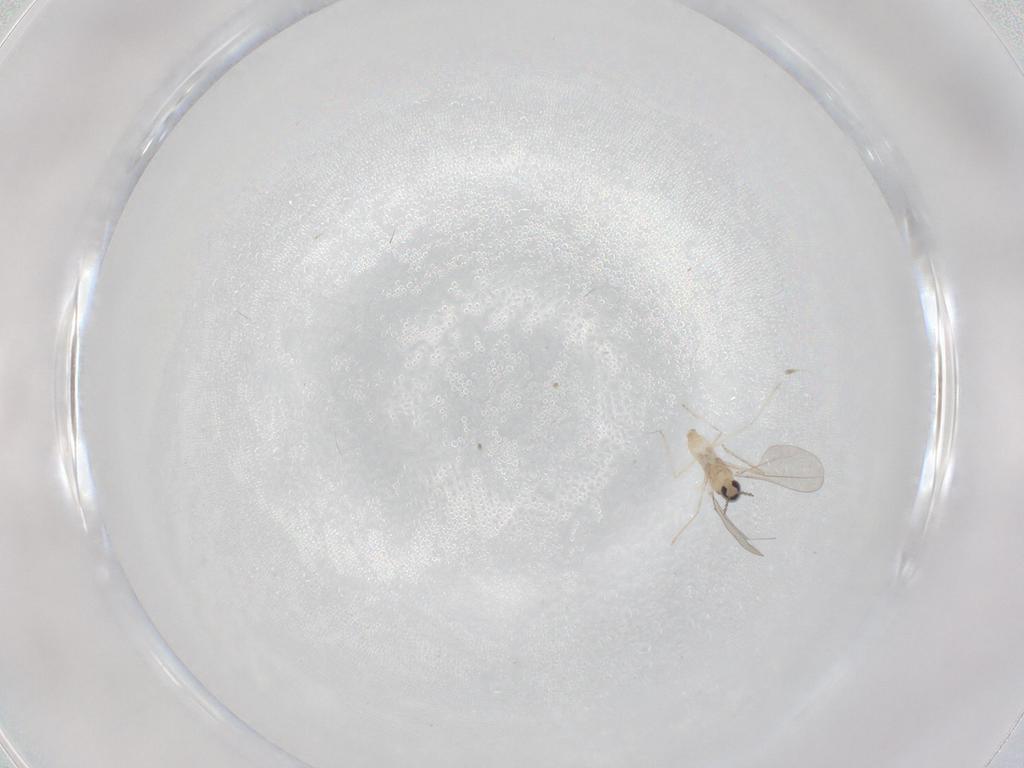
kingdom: Animalia
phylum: Arthropoda
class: Insecta
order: Diptera
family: Cecidomyiidae
